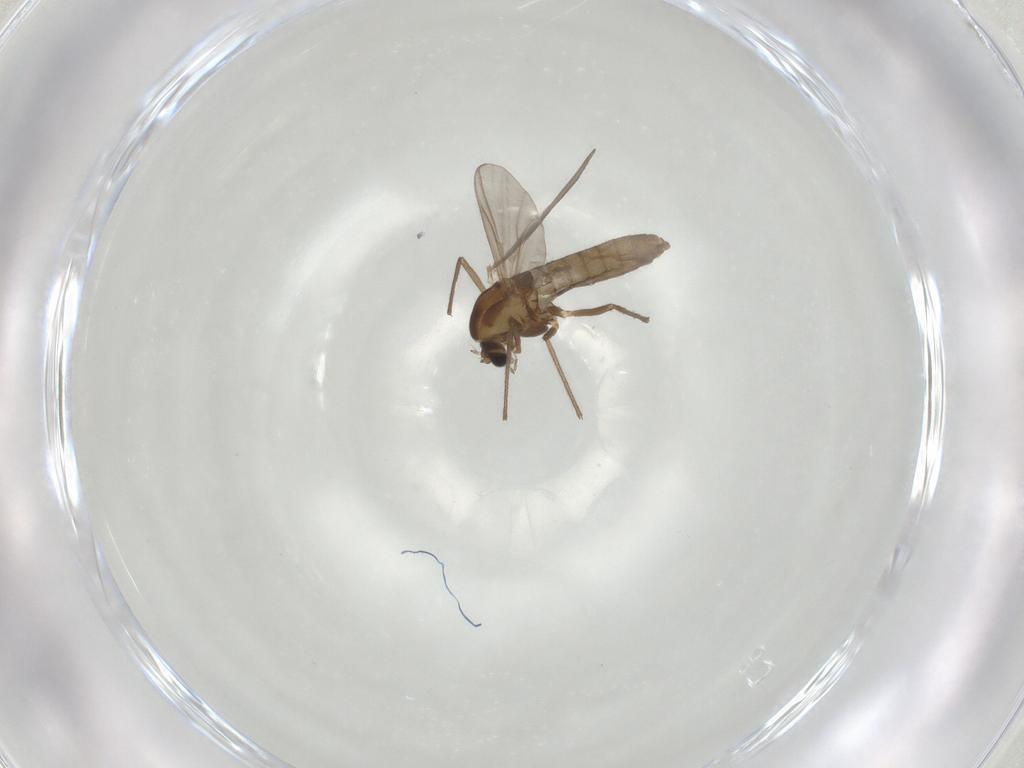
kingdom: Animalia
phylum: Arthropoda
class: Insecta
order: Diptera
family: Chironomidae
